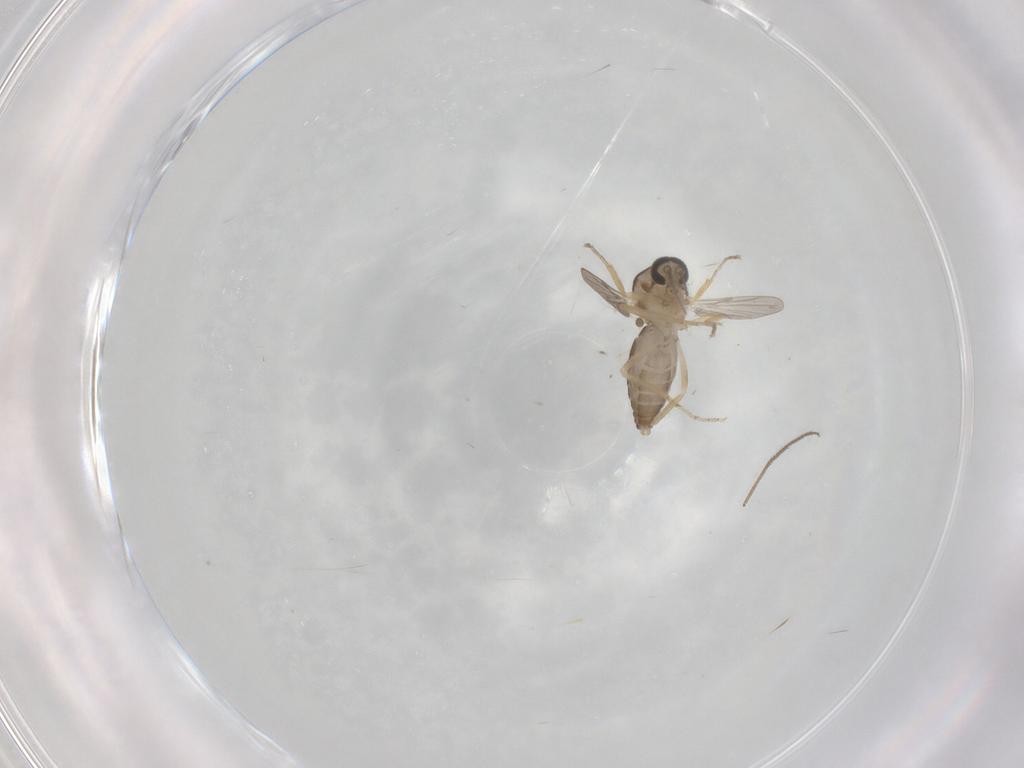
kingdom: Animalia
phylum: Arthropoda
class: Insecta
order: Diptera
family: Ceratopogonidae
